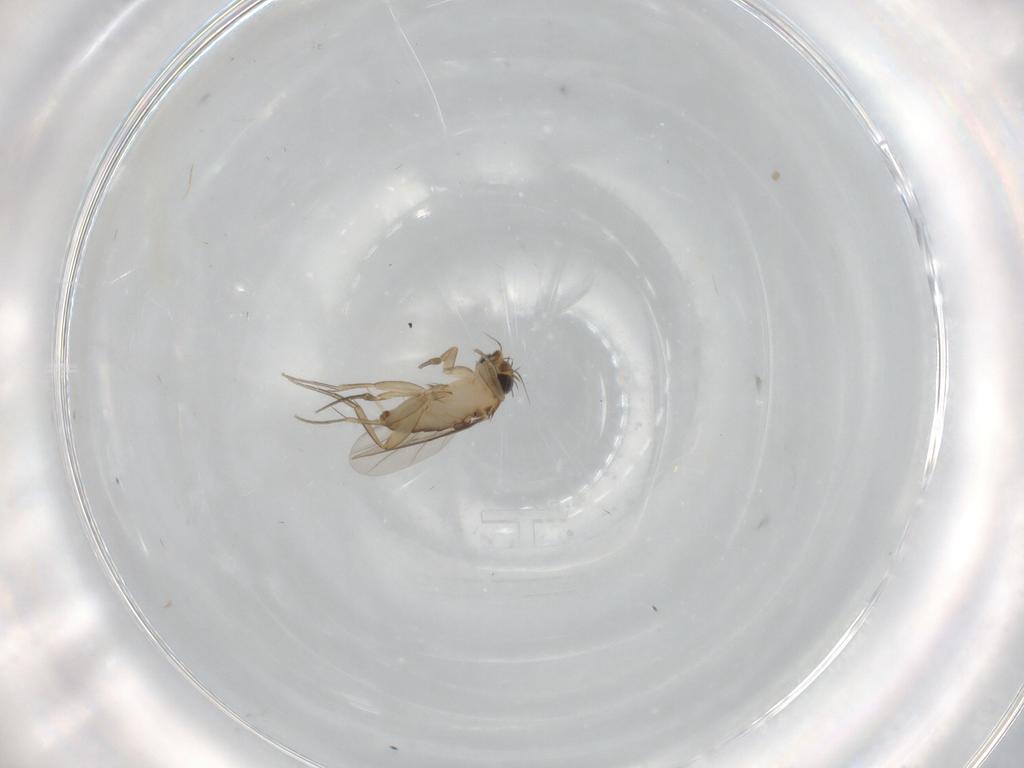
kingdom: Animalia
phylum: Arthropoda
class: Insecta
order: Diptera
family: Phoridae
